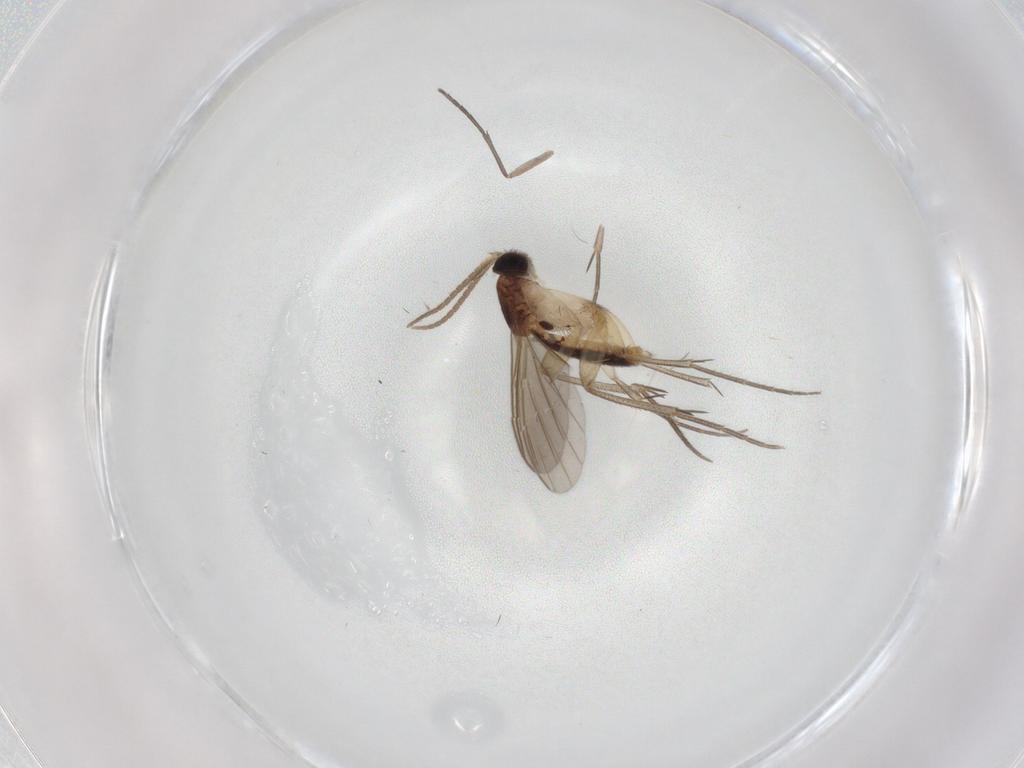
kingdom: Animalia
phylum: Arthropoda
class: Insecta
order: Diptera
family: Mycetophilidae
